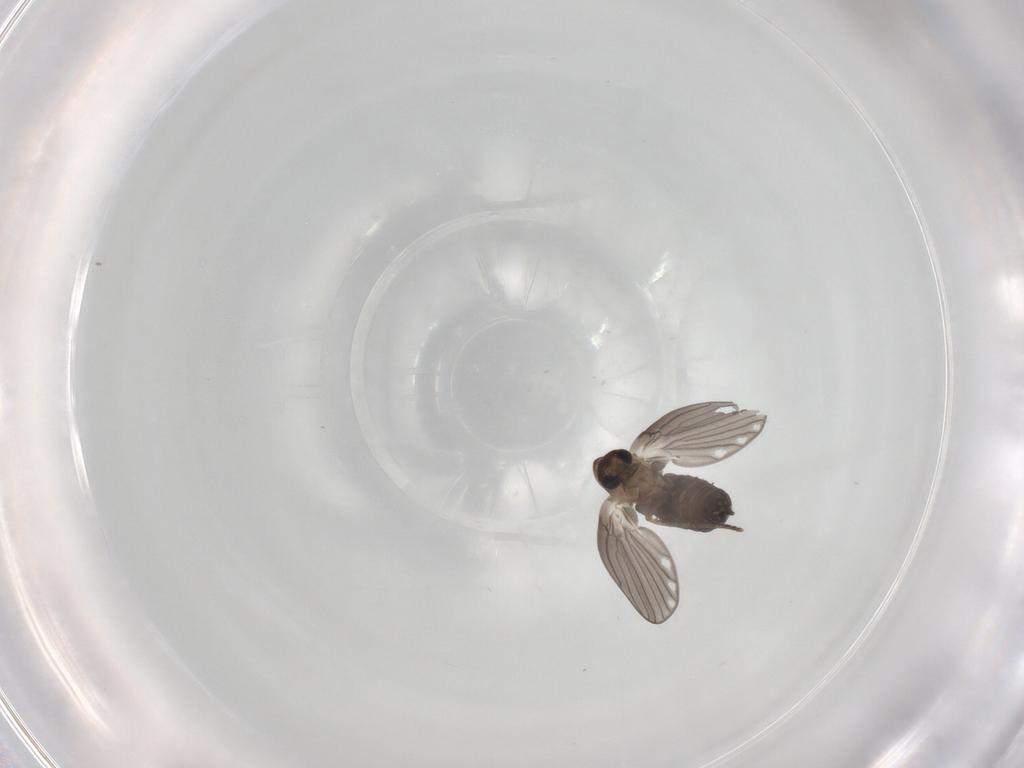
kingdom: Animalia
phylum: Arthropoda
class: Insecta
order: Diptera
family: Psychodidae
